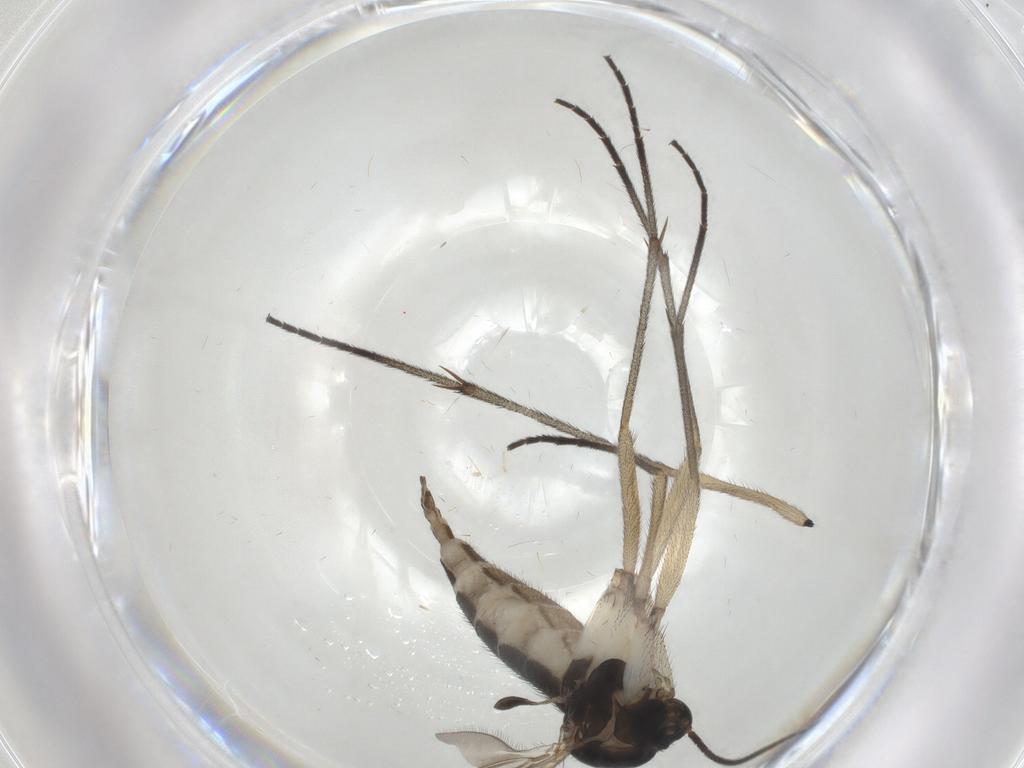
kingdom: Animalia
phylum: Arthropoda
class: Insecta
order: Diptera
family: Sciaridae
